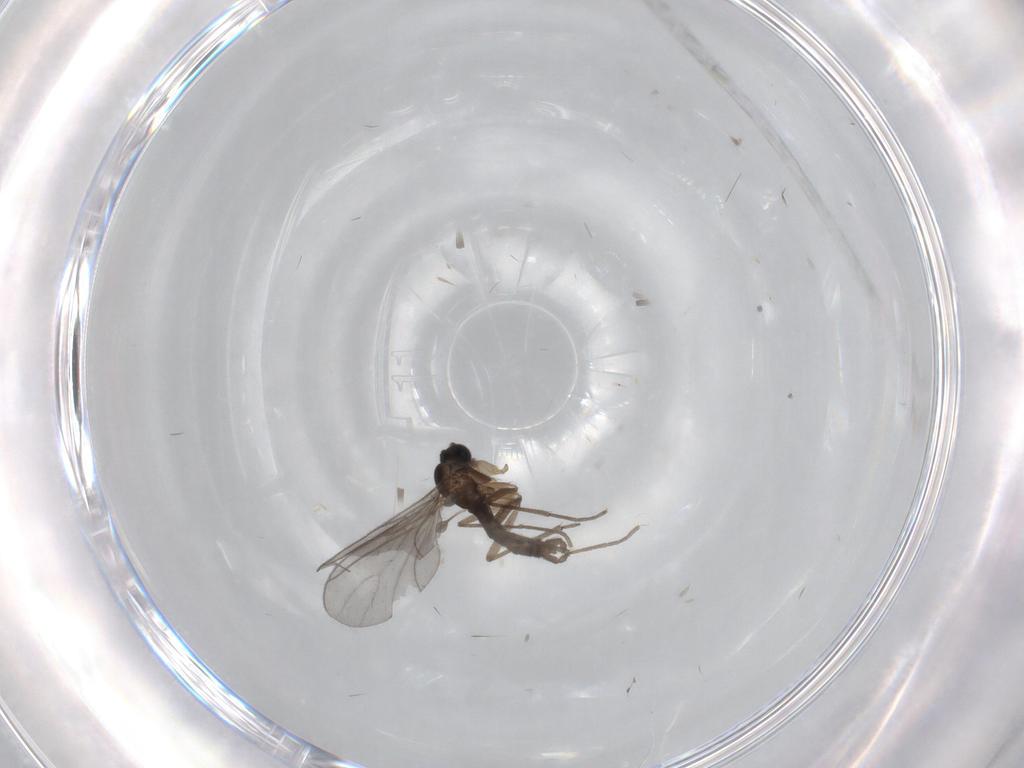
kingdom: Animalia
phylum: Arthropoda
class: Insecta
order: Diptera
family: Sciaridae
